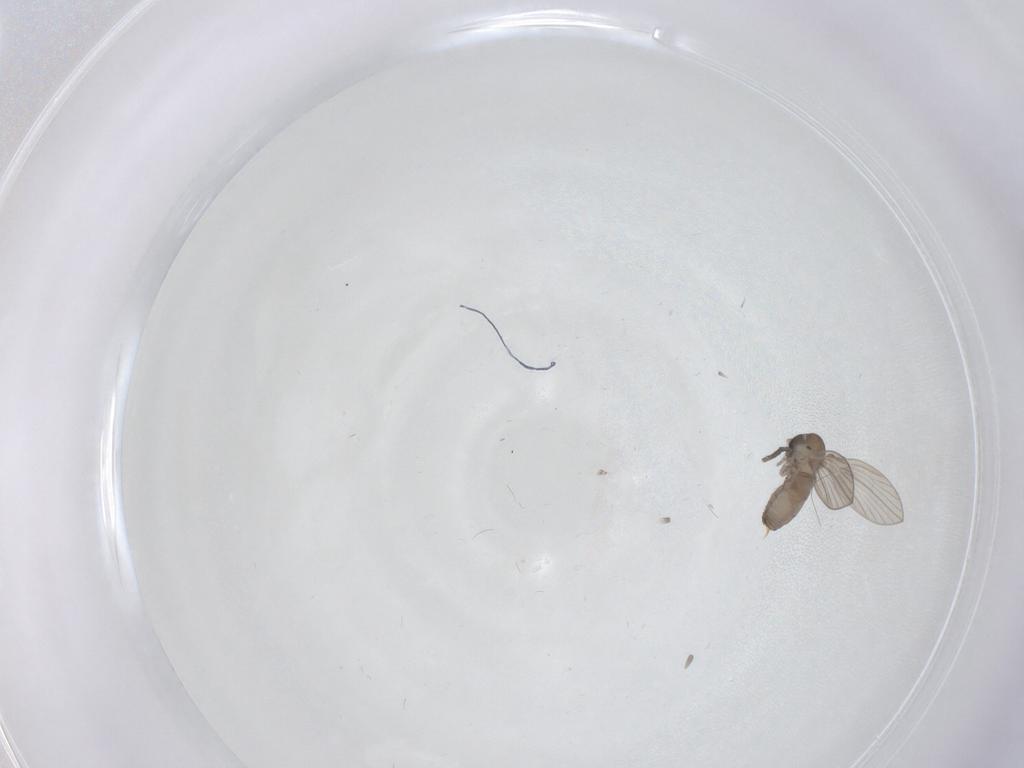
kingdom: Animalia
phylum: Arthropoda
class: Insecta
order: Diptera
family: Psychodidae
